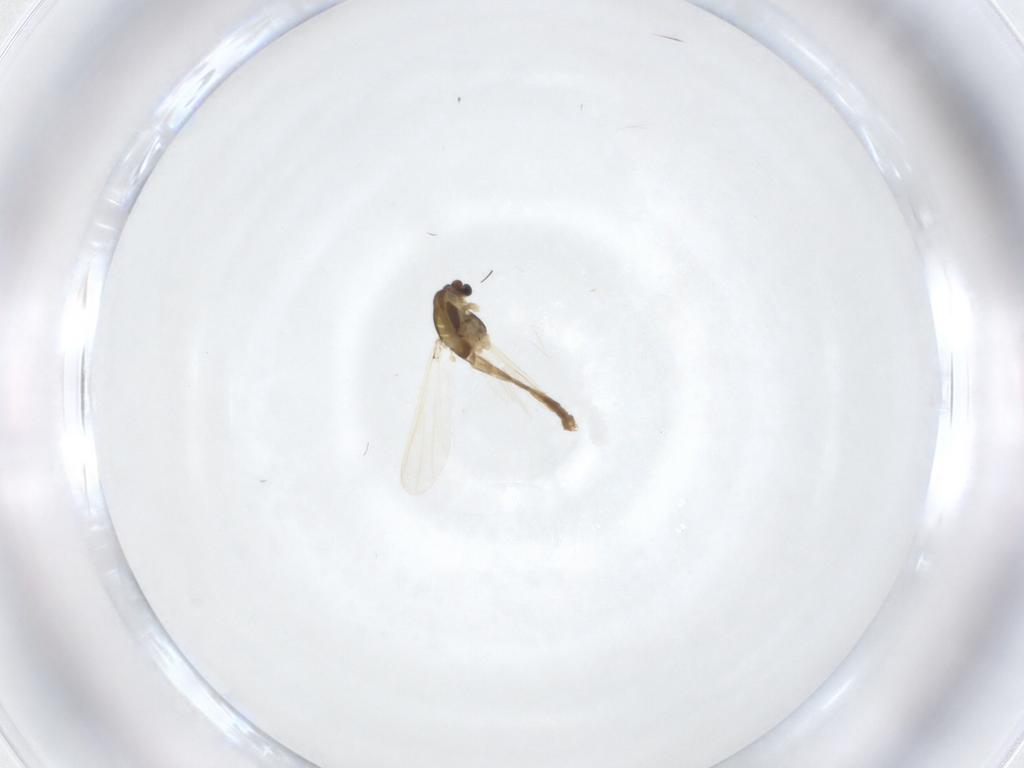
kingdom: Animalia
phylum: Arthropoda
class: Insecta
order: Diptera
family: Chironomidae
